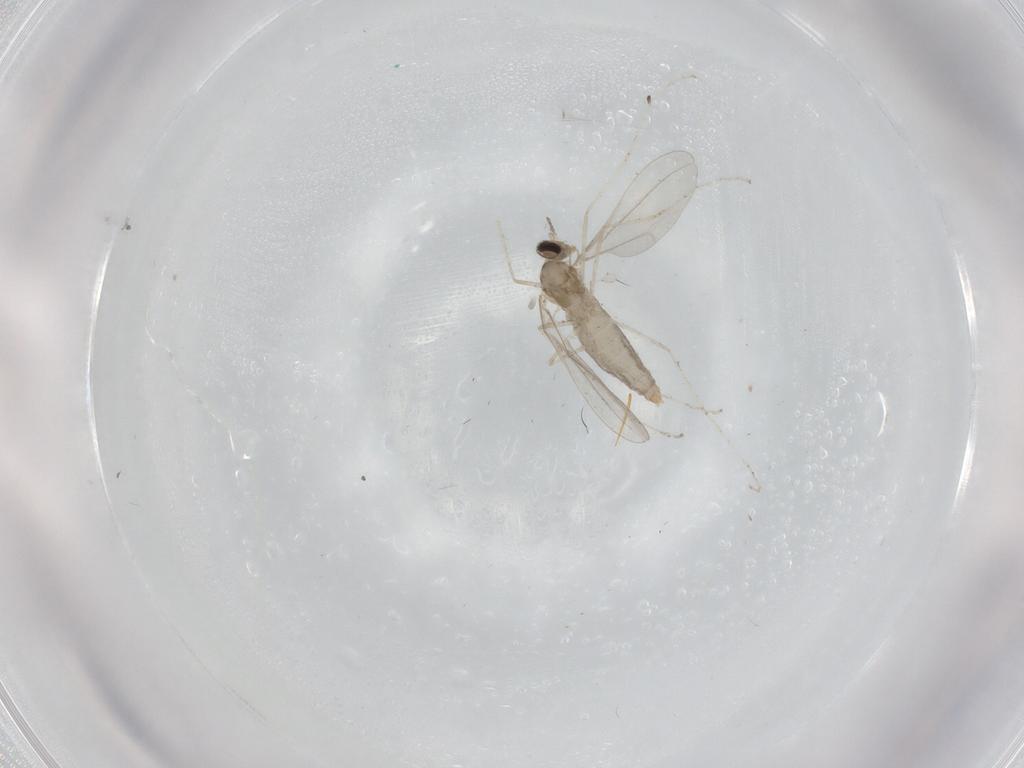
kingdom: Animalia
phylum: Arthropoda
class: Insecta
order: Diptera
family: Cecidomyiidae
